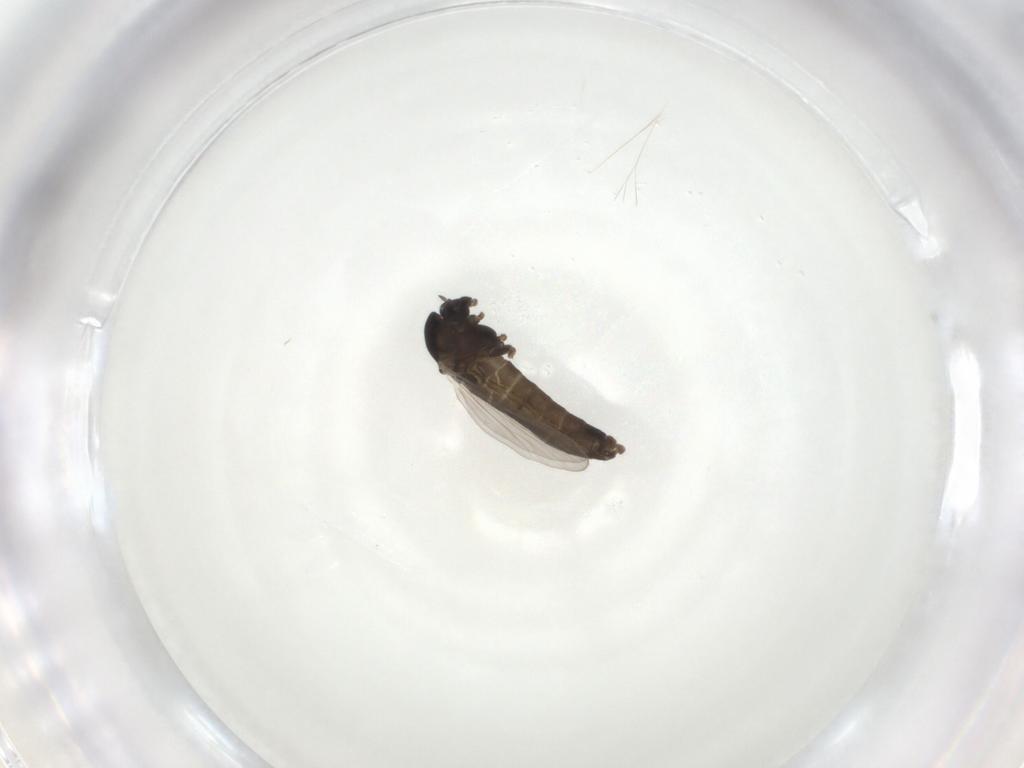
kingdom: Animalia
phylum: Arthropoda
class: Insecta
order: Diptera
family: Chironomidae
